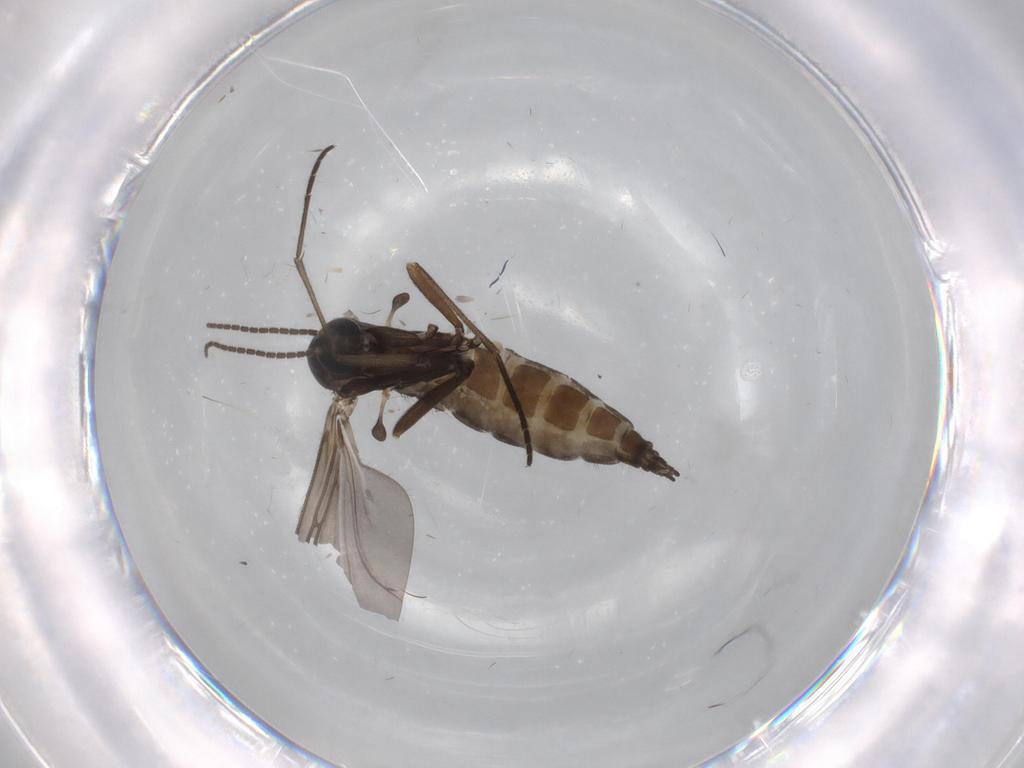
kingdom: Animalia
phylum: Arthropoda
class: Insecta
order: Diptera
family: Sciaridae
